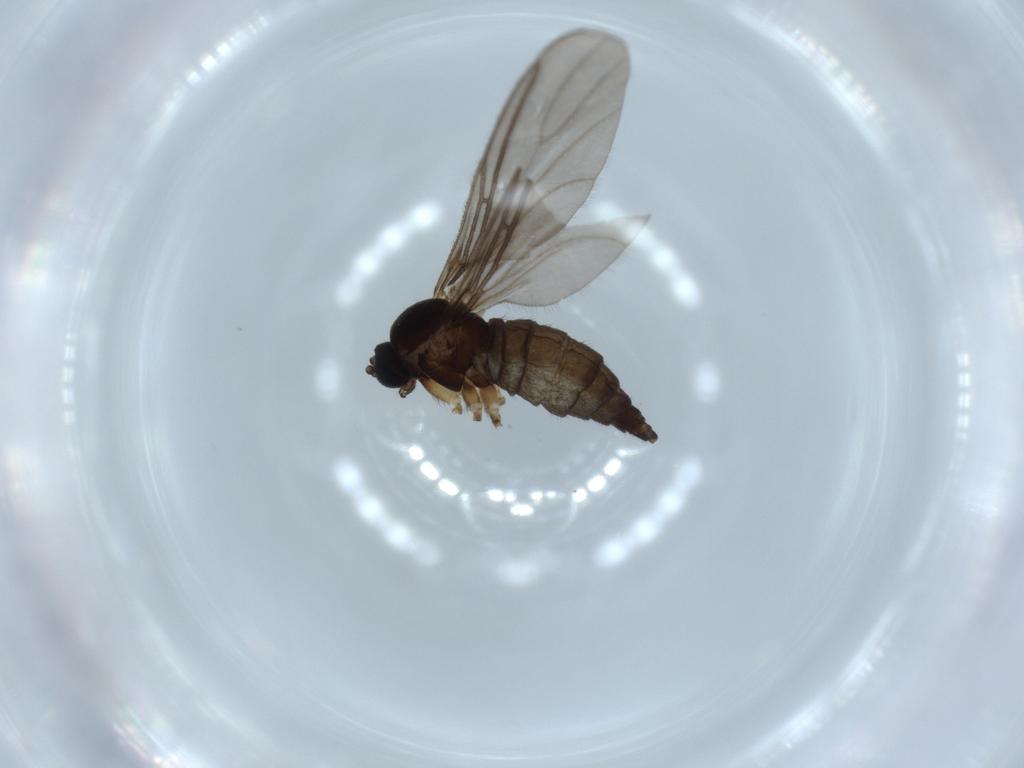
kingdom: Animalia
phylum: Arthropoda
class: Insecta
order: Diptera
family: Sciaridae
